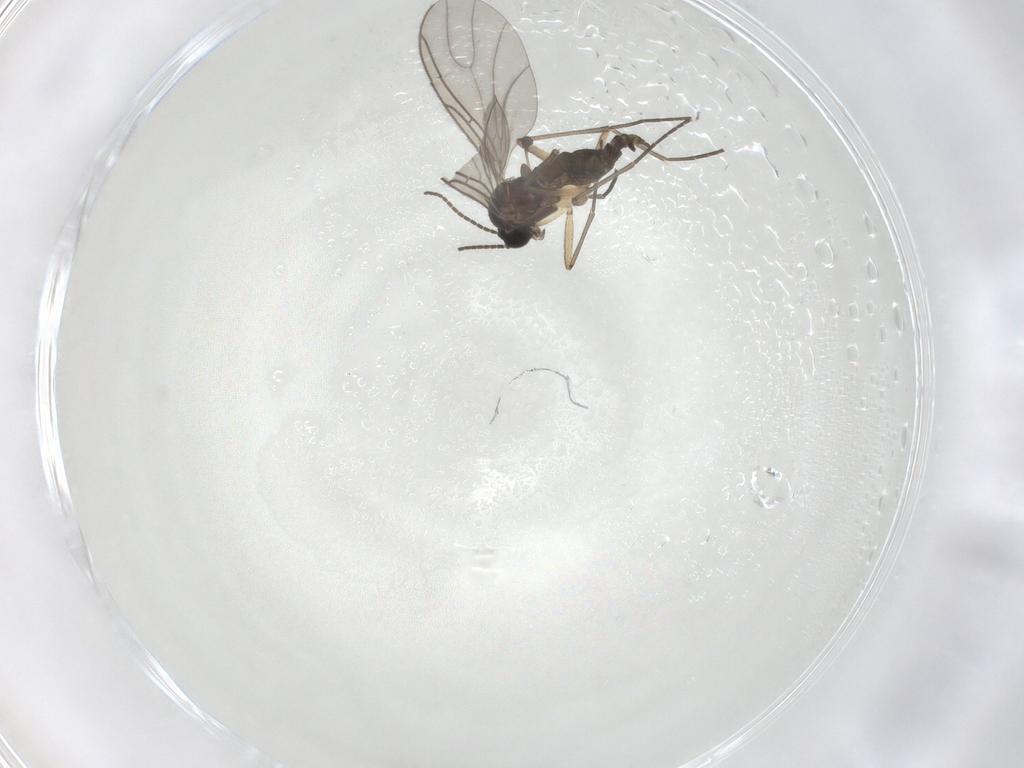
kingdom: Animalia
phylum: Arthropoda
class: Insecta
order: Diptera
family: Sciaridae
